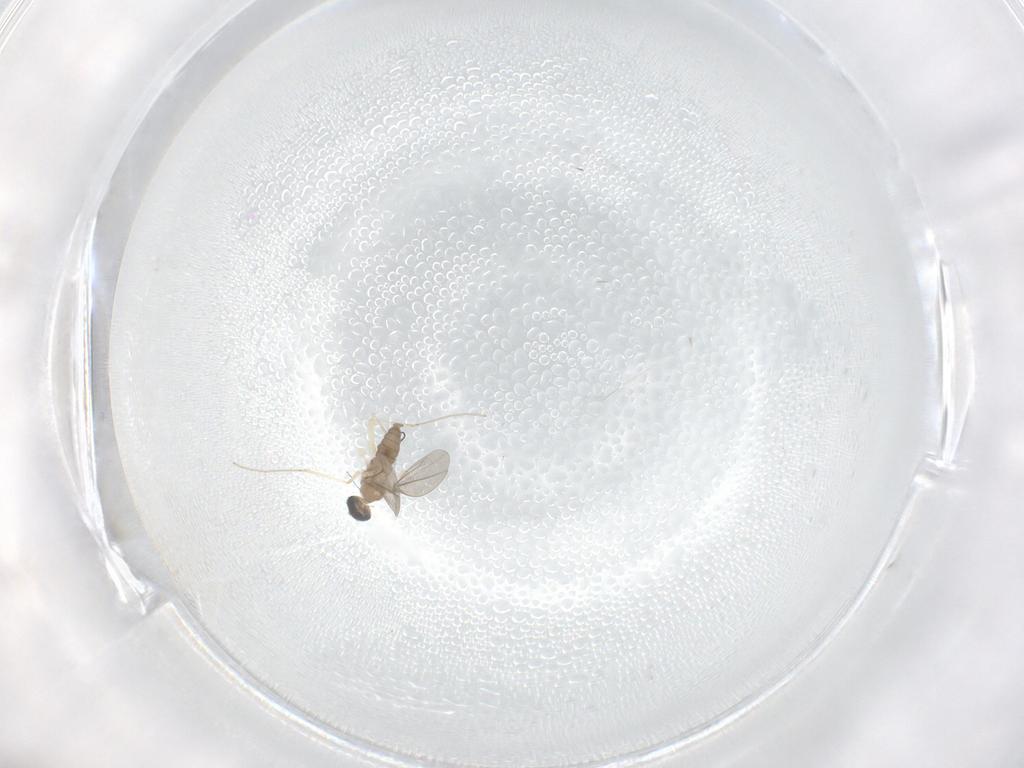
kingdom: Animalia
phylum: Arthropoda
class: Insecta
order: Diptera
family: Cecidomyiidae
